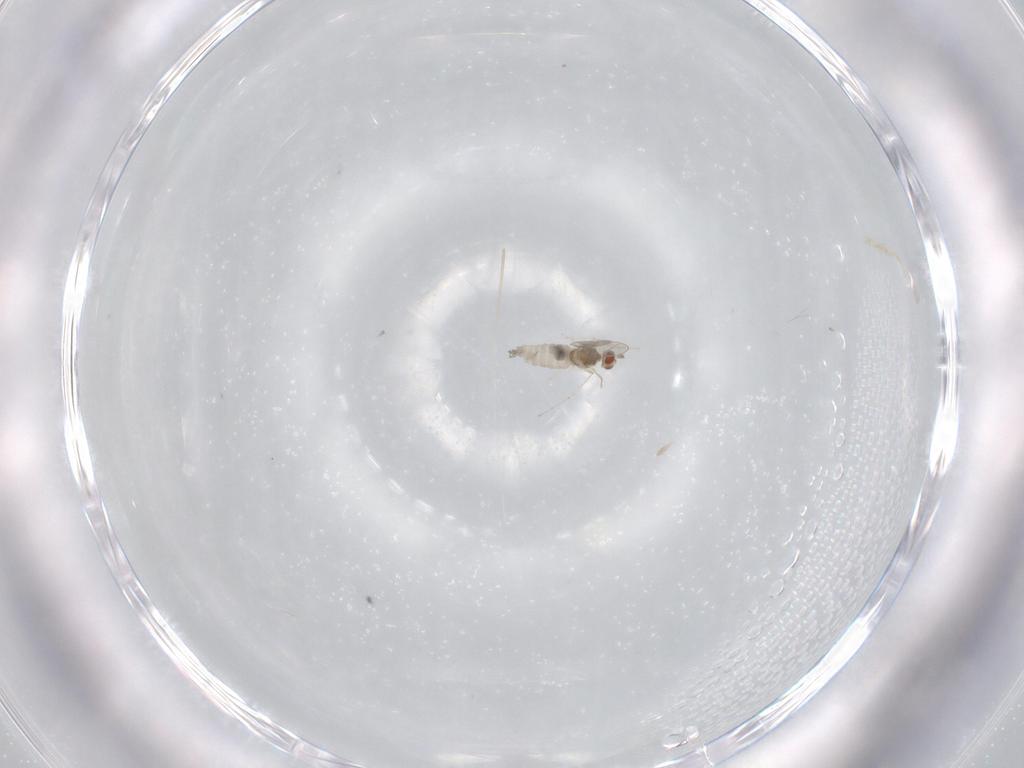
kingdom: Animalia
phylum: Arthropoda
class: Insecta
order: Diptera
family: Cecidomyiidae
